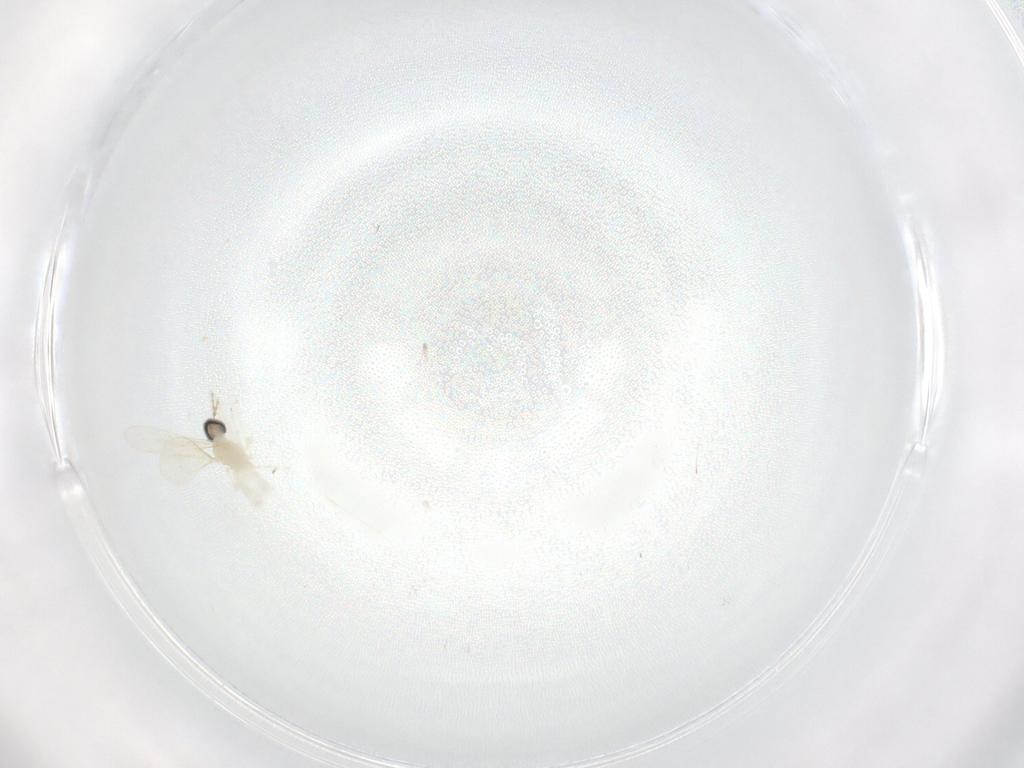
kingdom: Animalia
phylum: Arthropoda
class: Insecta
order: Diptera
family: Cecidomyiidae
